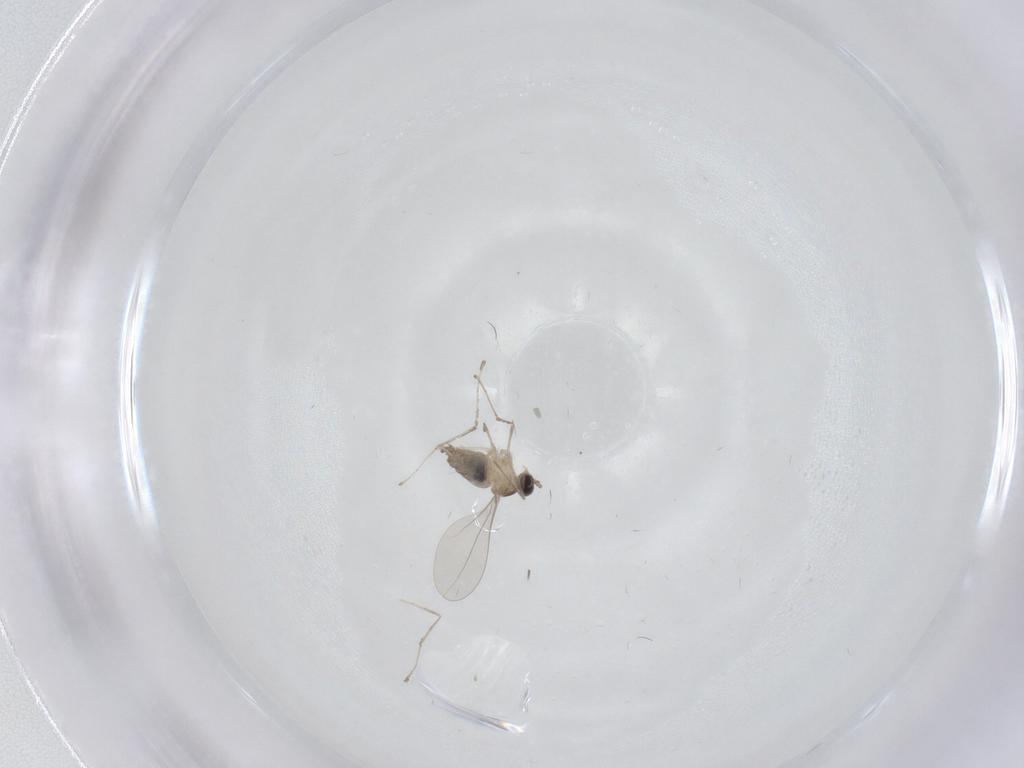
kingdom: Animalia
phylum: Arthropoda
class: Insecta
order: Diptera
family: Cecidomyiidae
